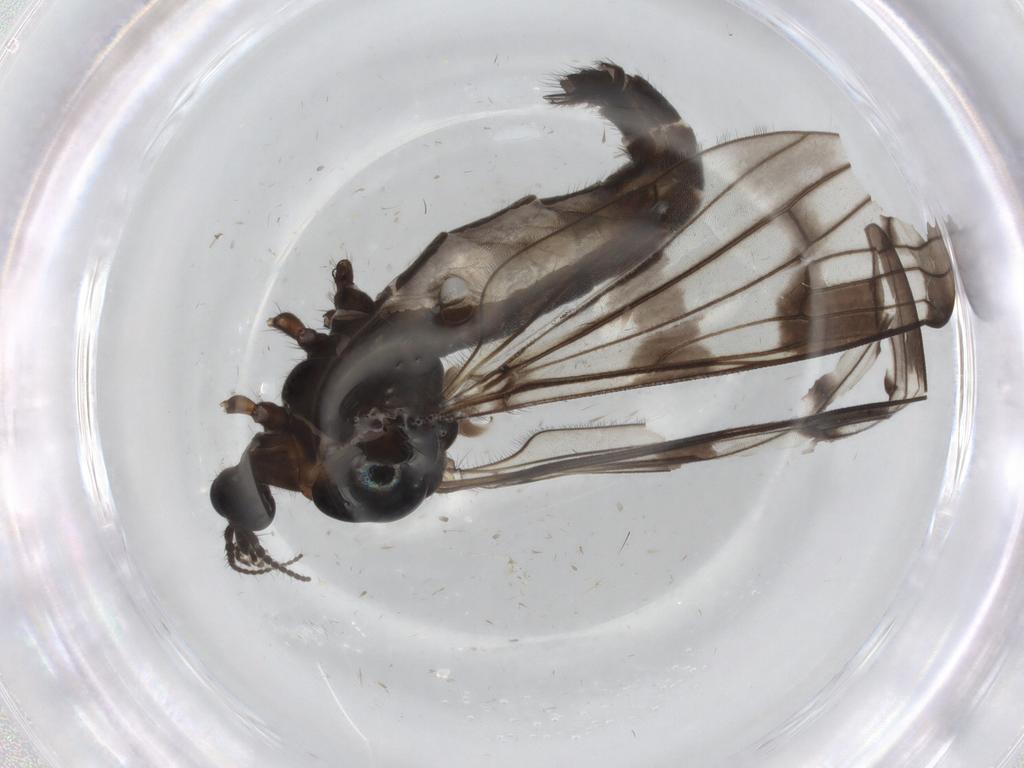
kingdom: Animalia
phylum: Arthropoda
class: Insecta
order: Diptera
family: Limoniidae
